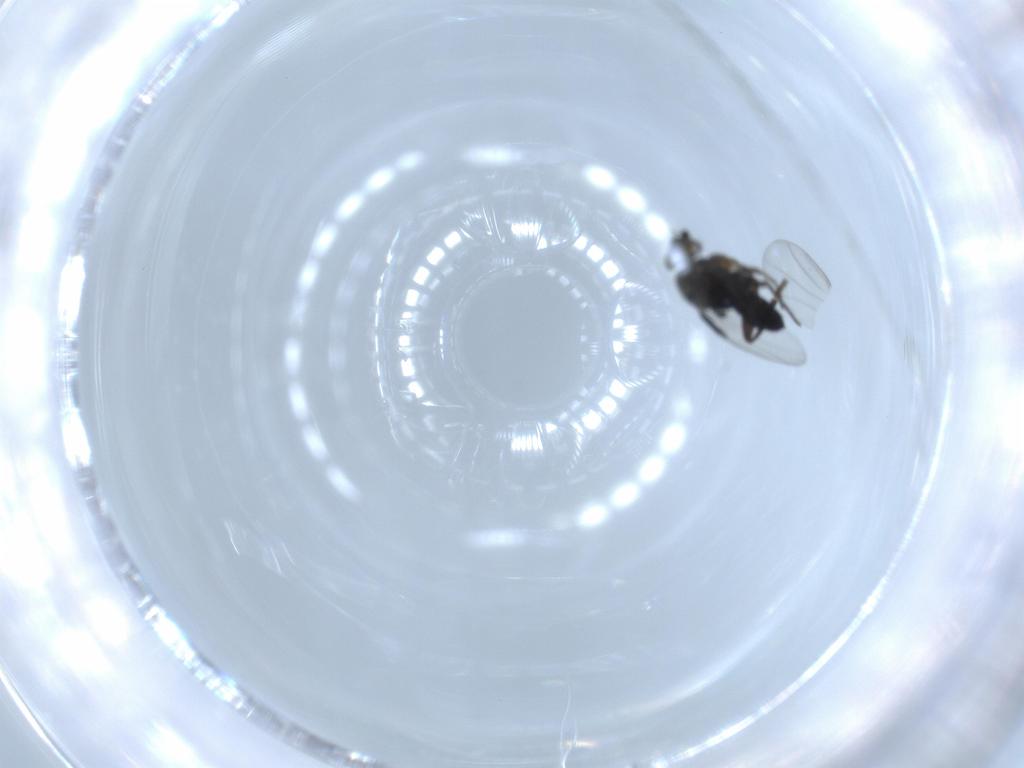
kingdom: Animalia
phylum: Arthropoda
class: Insecta
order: Diptera
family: Phoridae
